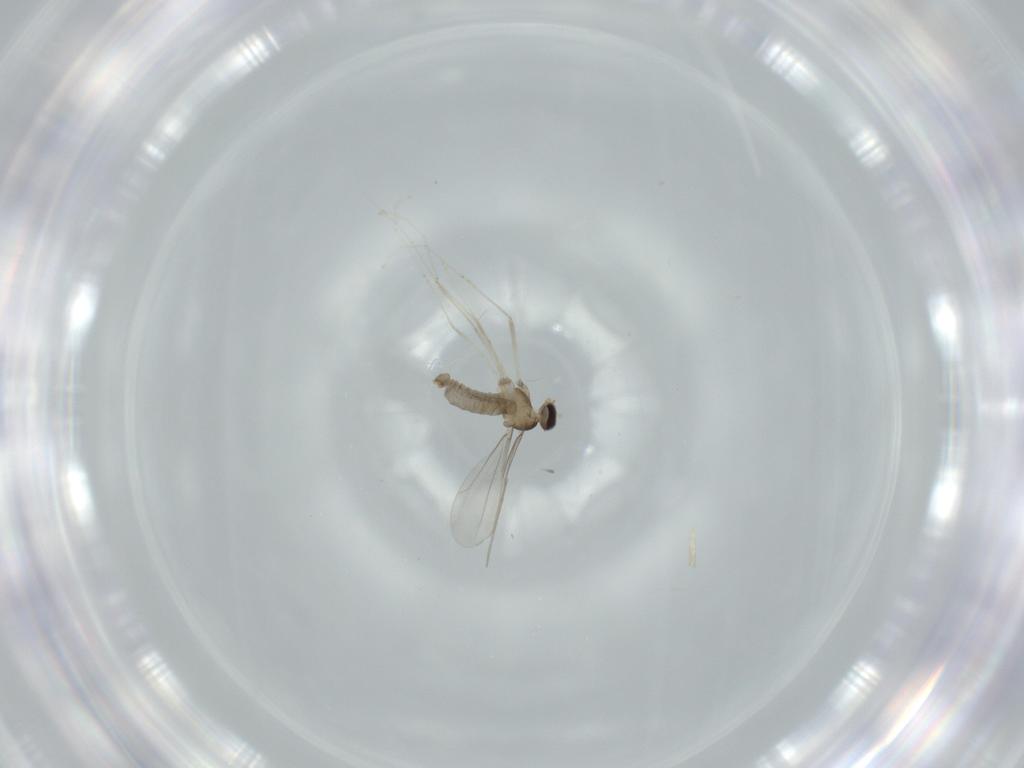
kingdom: Animalia
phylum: Arthropoda
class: Insecta
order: Diptera
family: Cecidomyiidae
